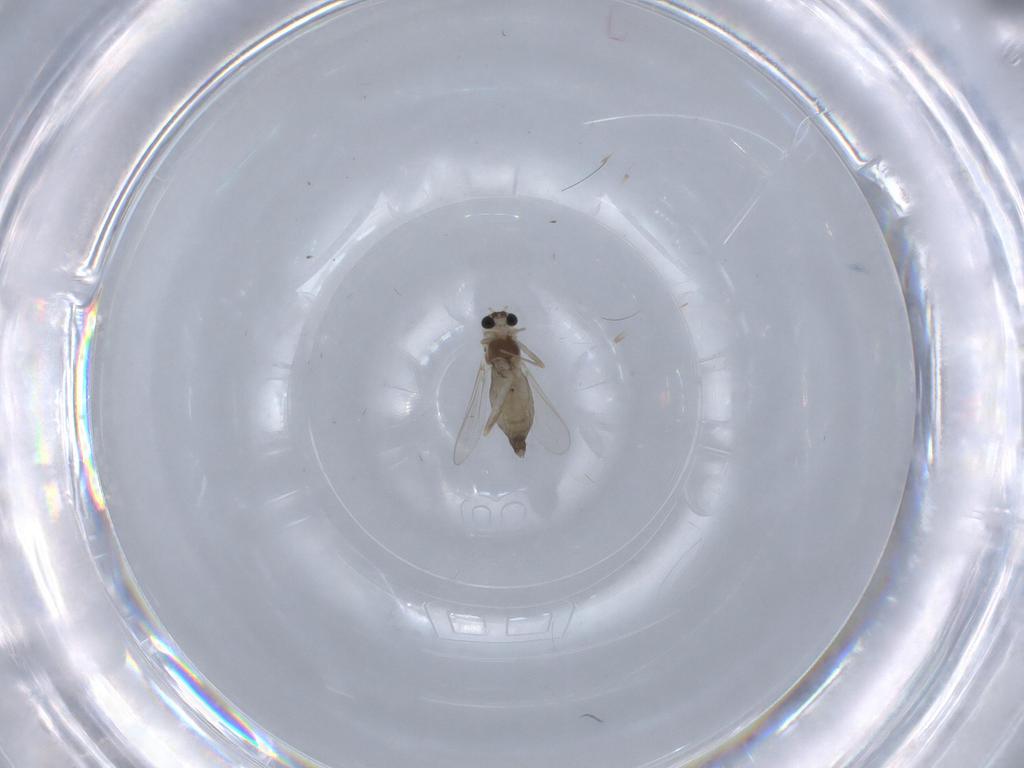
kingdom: Animalia
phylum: Arthropoda
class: Insecta
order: Diptera
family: Chironomidae
